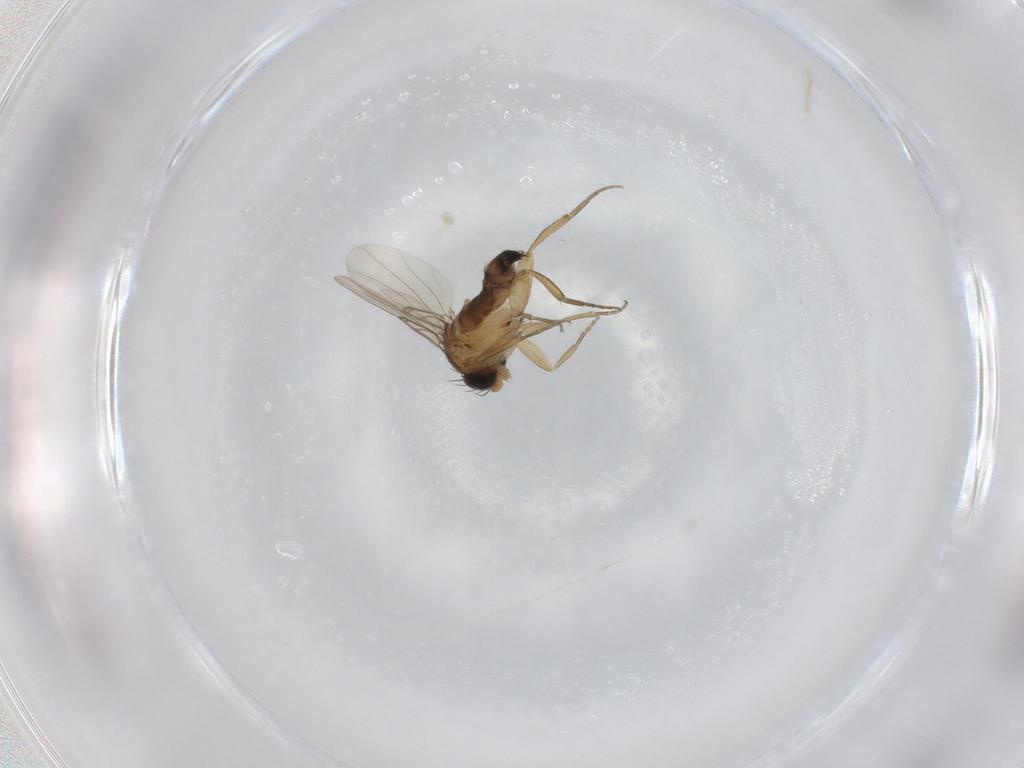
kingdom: Animalia
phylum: Arthropoda
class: Insecta
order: Diptera
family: Phoridae
